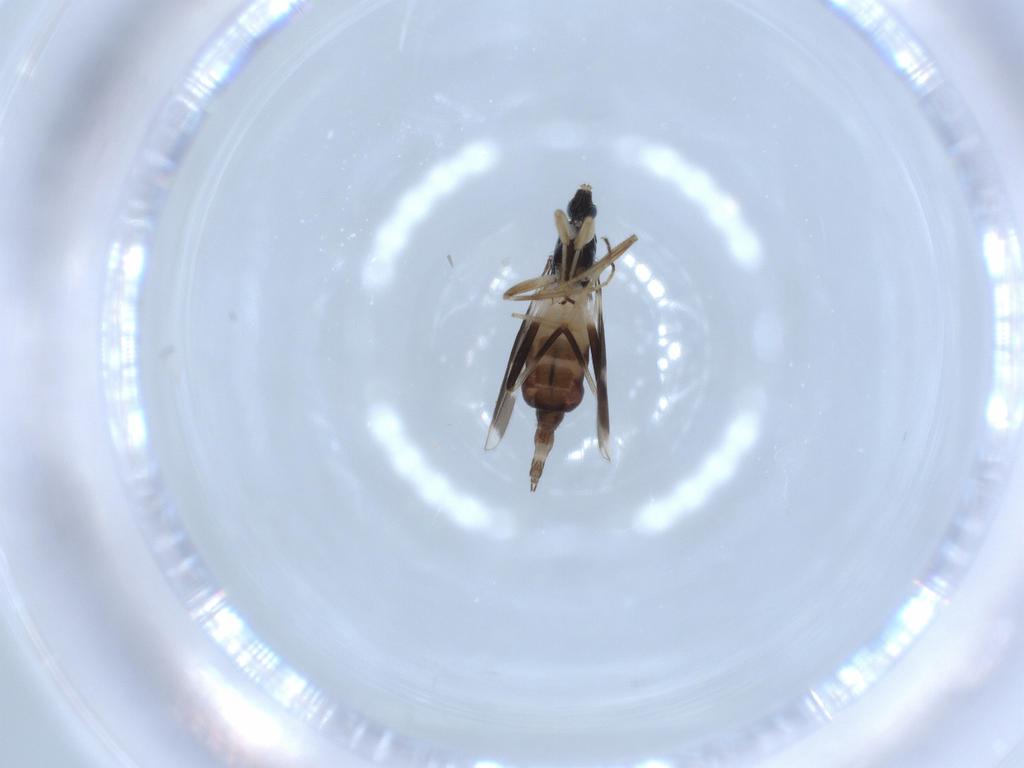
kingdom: Animalia
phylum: Arthropoda
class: Insecta
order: Diptera
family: Hybotidae
